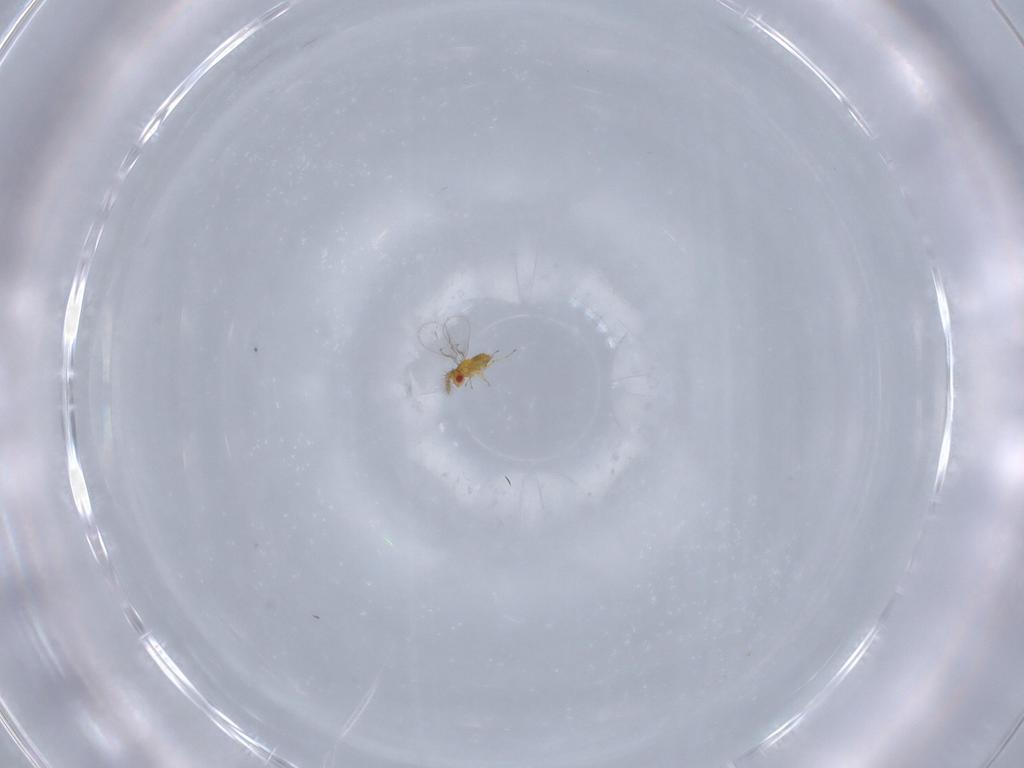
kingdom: Animalia
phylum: Arthropoda
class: Insecta
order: Hymenoptera
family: Trichogrammatidae
